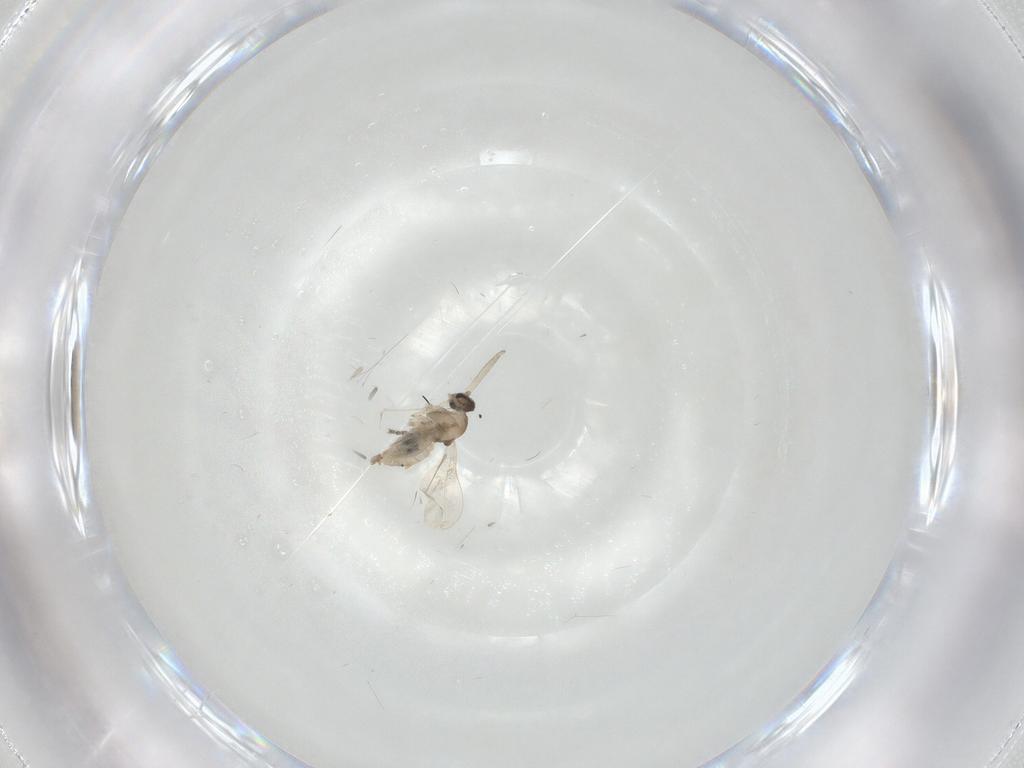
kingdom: Animalia
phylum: Arthropoda
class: Insecta
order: Diptera
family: Cecidomyiidae
